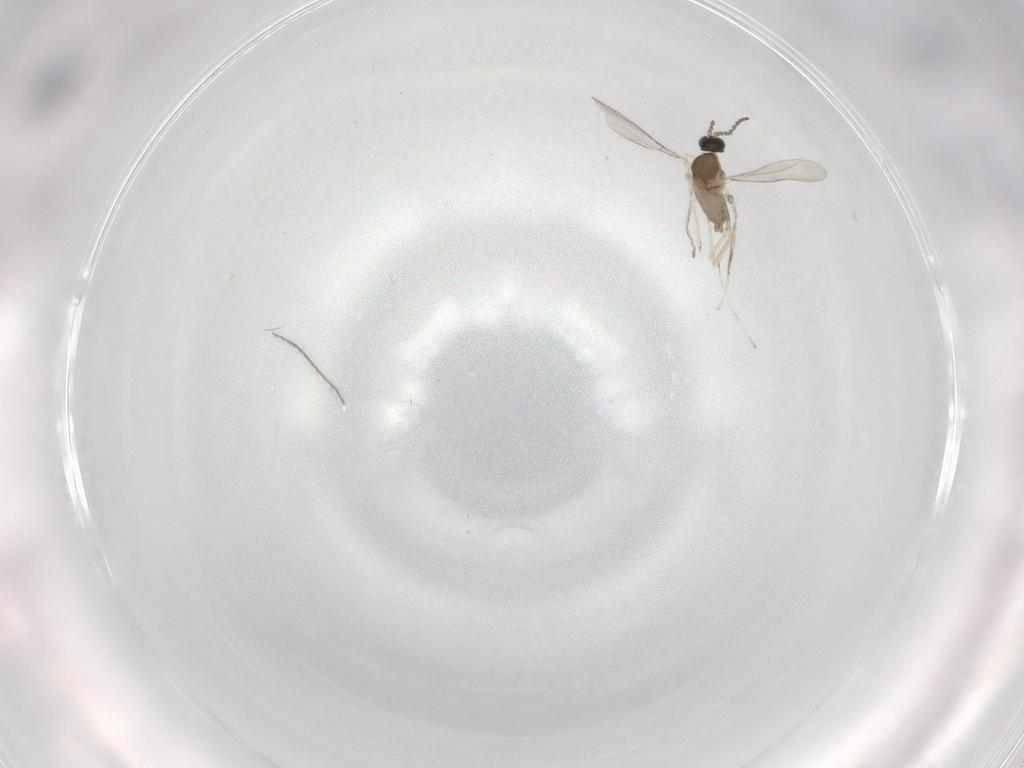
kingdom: Animalia
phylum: Arthropoda
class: Insecta
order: Diptera
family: Cecidomyiidae
